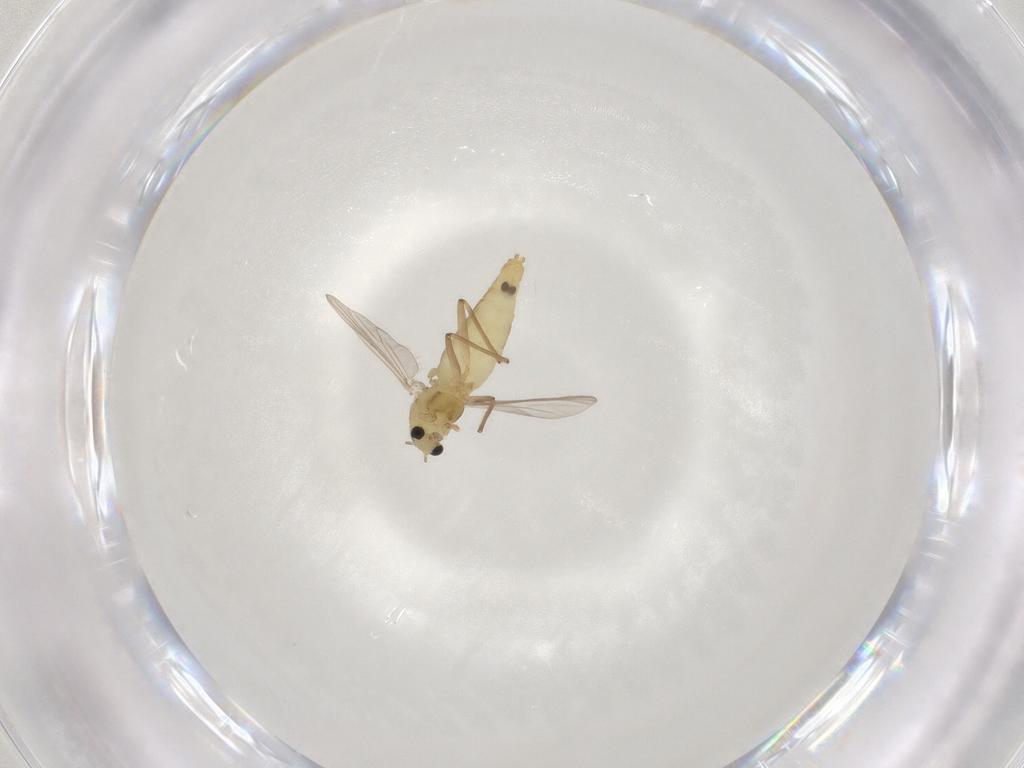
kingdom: Animalia
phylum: Arthropoda
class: Insecta
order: Diptera
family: Chironomidae
